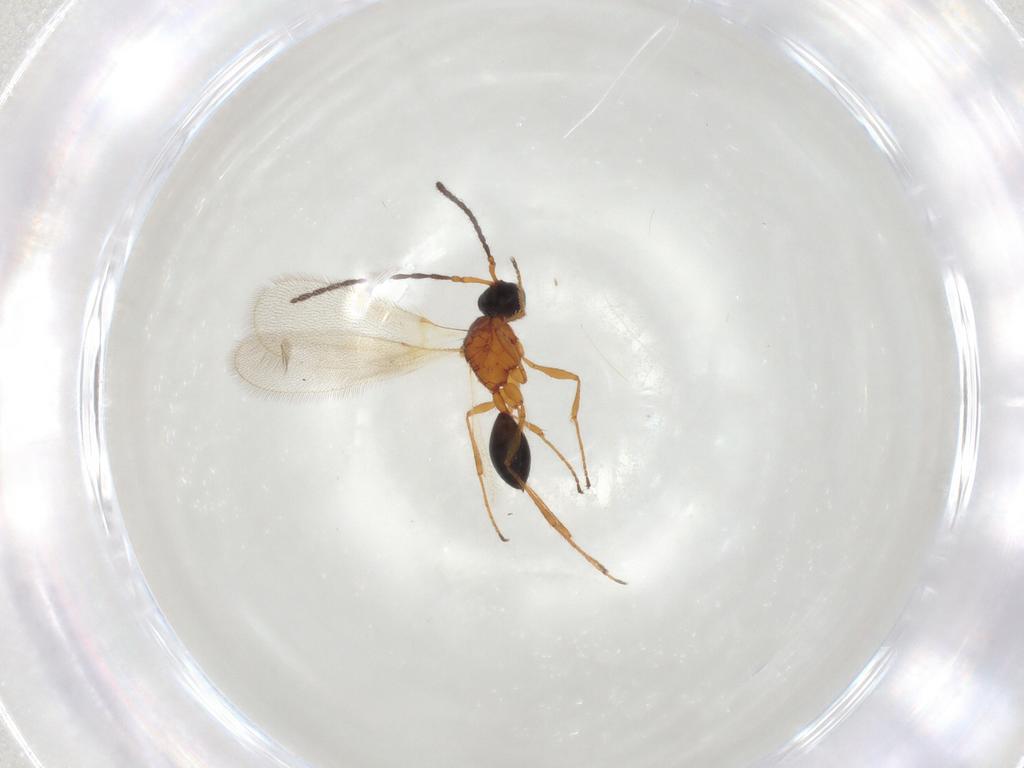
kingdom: Animalia
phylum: Arthropoda
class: Insecta
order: Hymenoptera
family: Diapriidae
